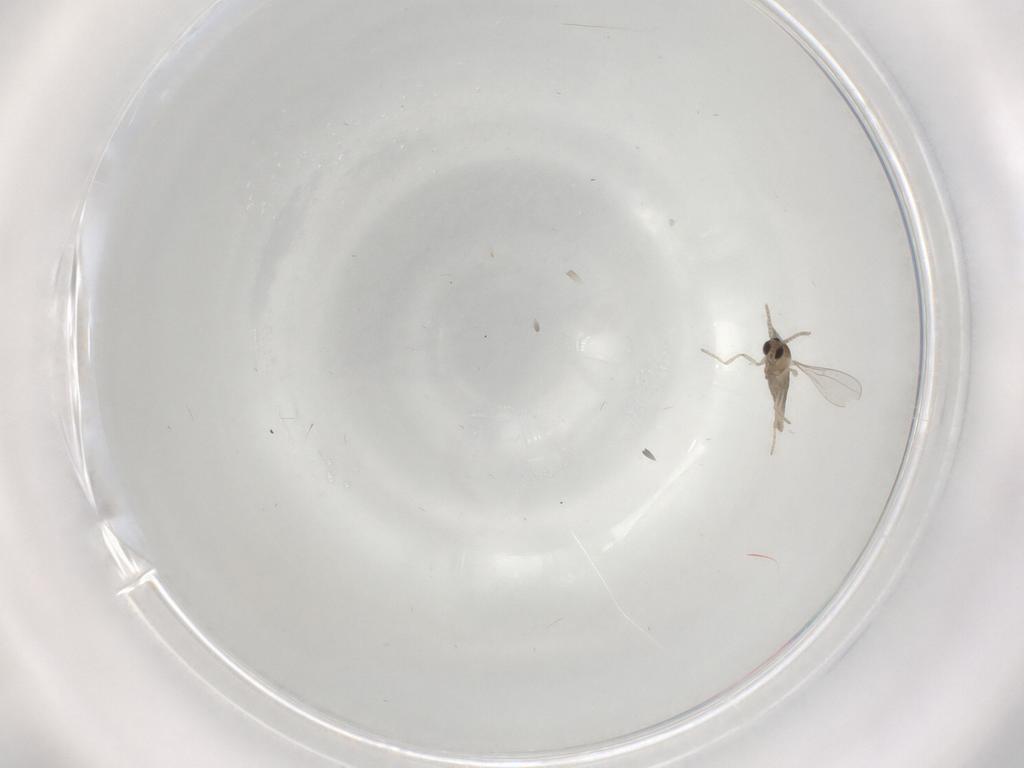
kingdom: Animalia
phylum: Arthropoda
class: Insecta
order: Diptera
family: Cecidomyiidae
